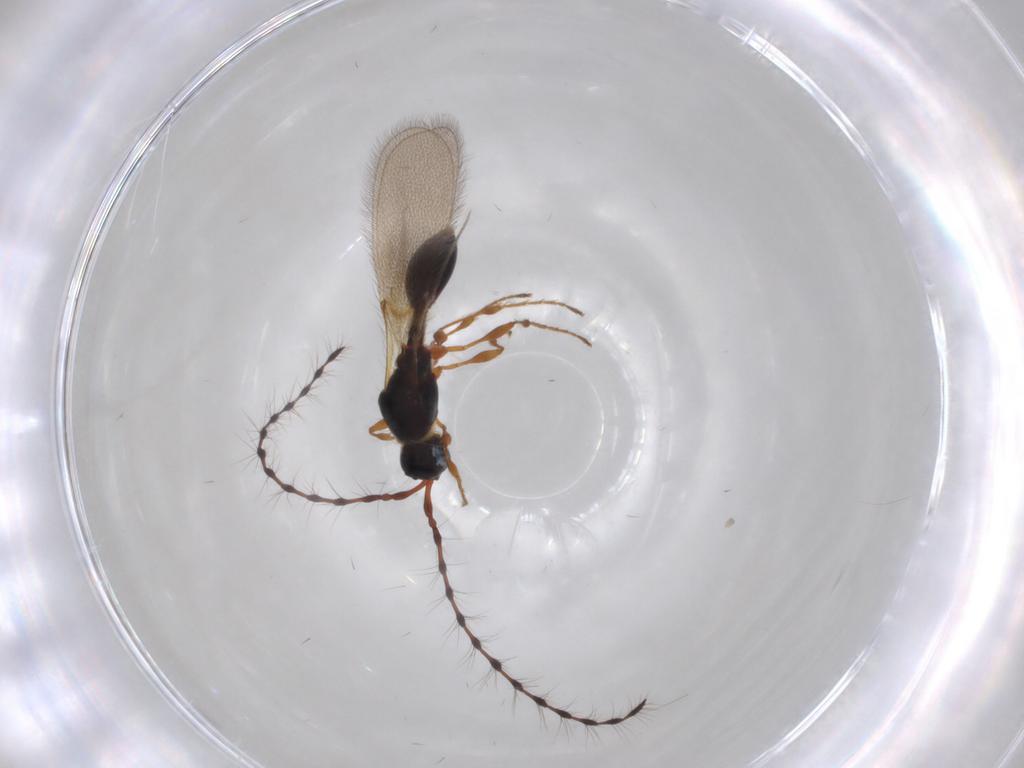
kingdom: Animalia
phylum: Arthropoda
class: Insecta
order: Hymenoptera
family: Diapriidae
